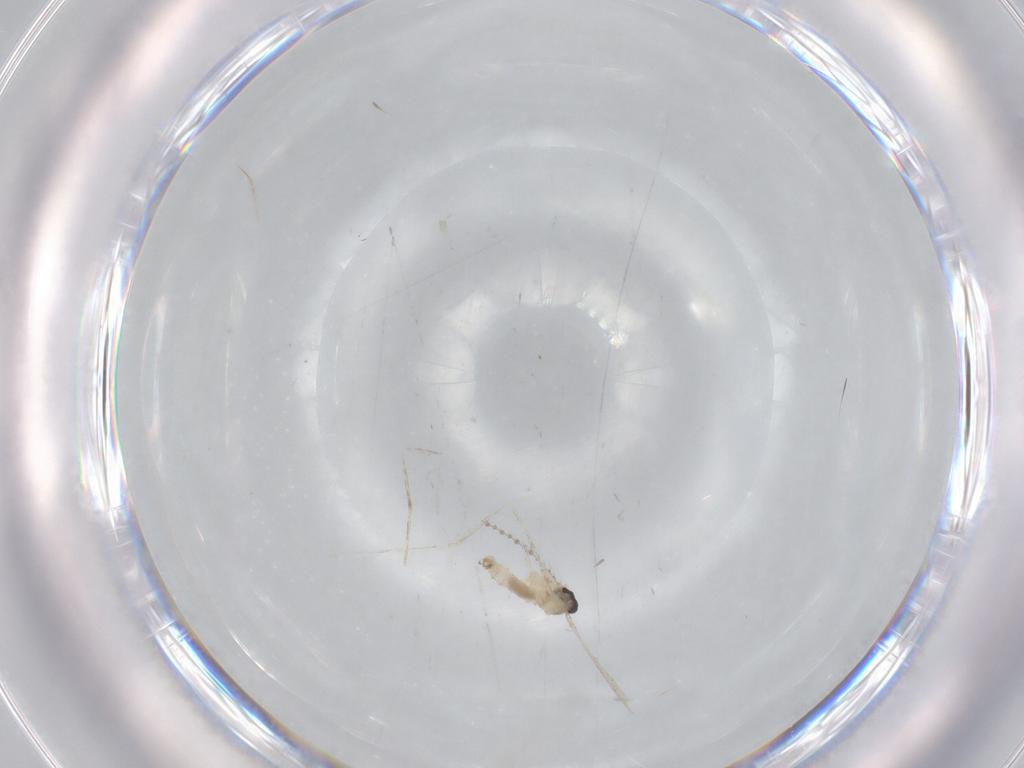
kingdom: Animalia
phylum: Arthropoda
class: Insecta
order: Diptera
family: Cecidomyiidae
